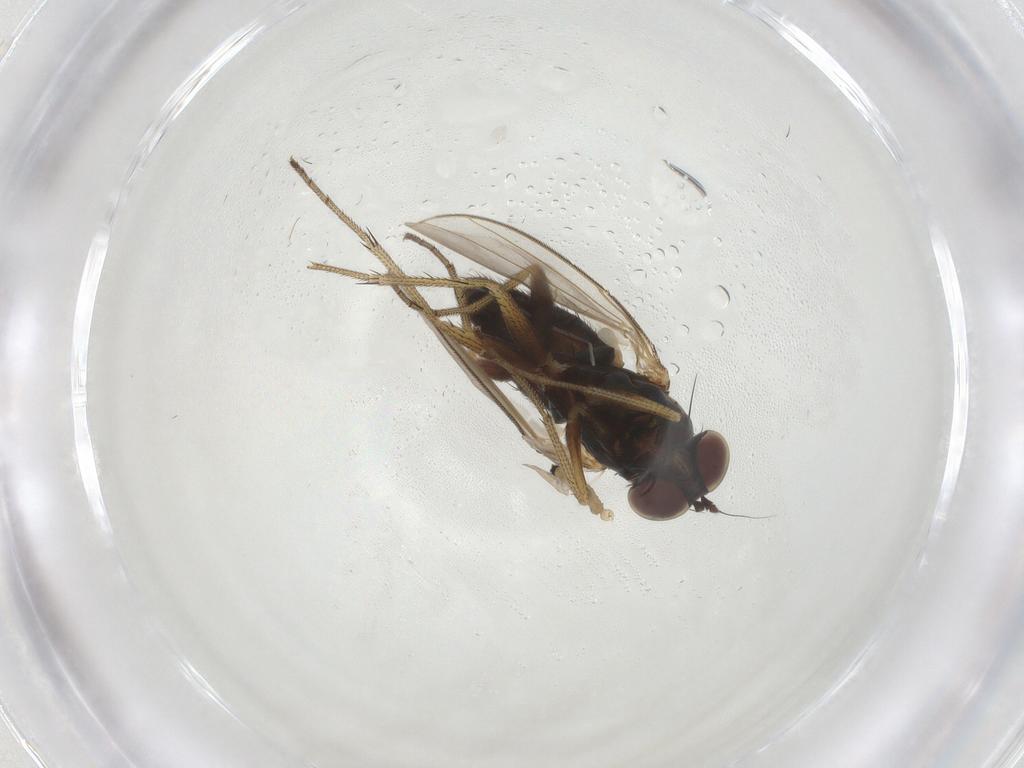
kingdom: Animalia
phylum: Arthropoda
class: Insecta
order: Diptera
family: Dolichopodidae
